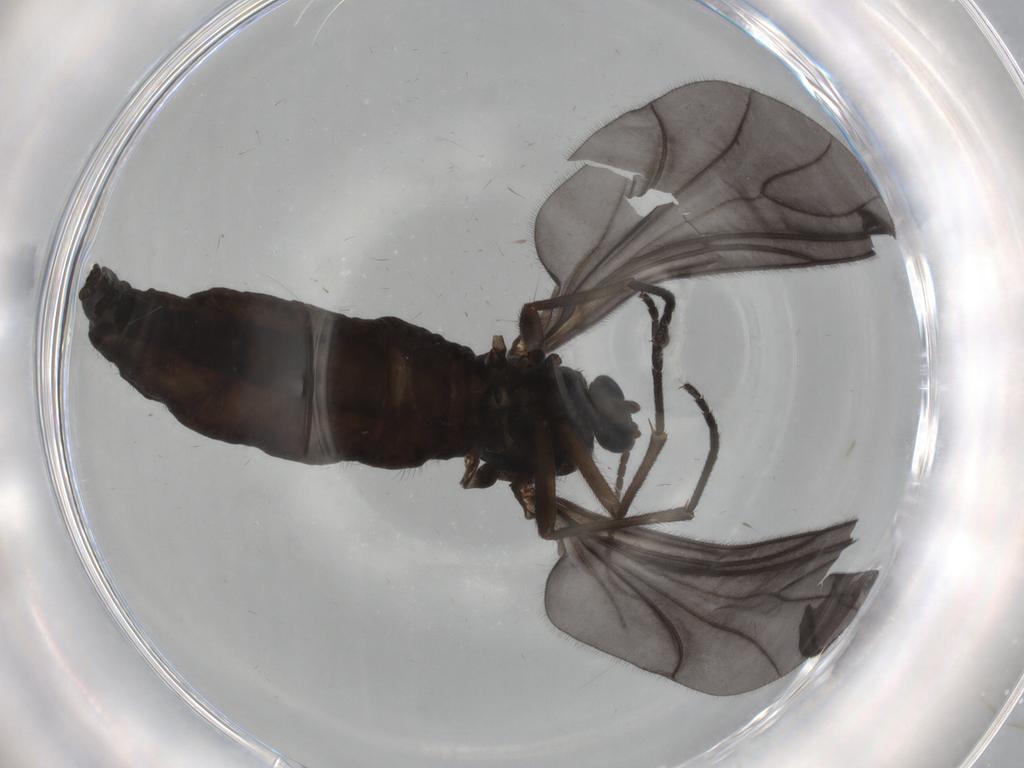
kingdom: Animalia
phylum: Arthropoda
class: Insecta
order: Diptera
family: Sciaridae
